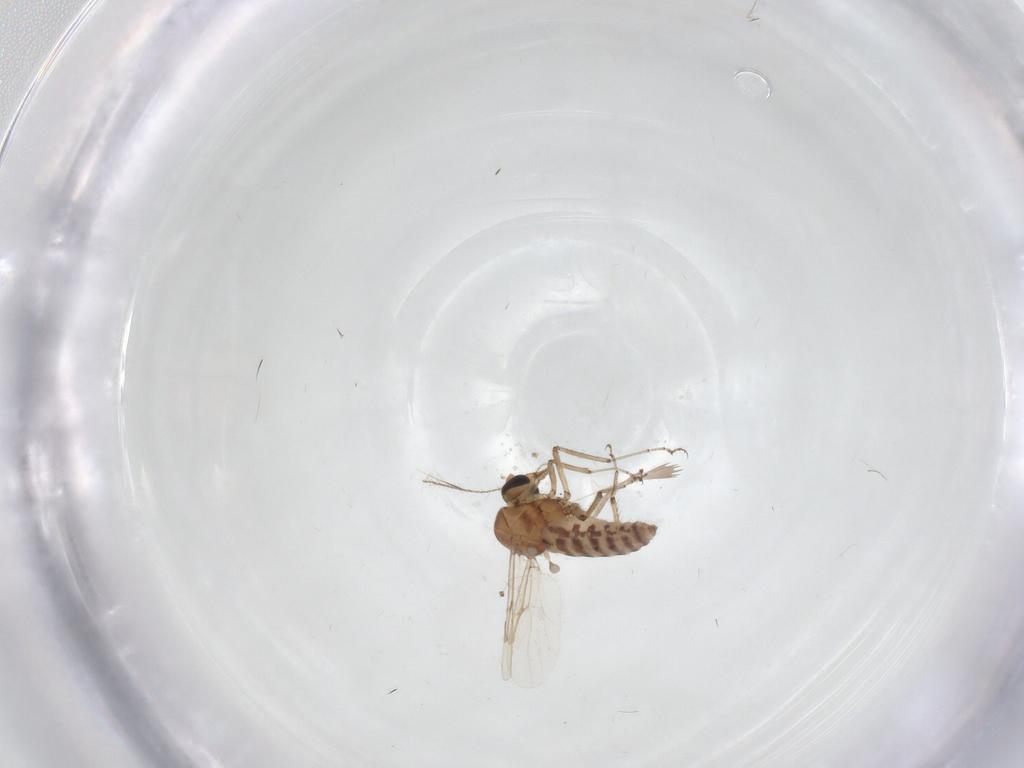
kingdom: Animalia
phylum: Arthropoda
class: Insecta
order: Diptera
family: Ceratopogonidae
